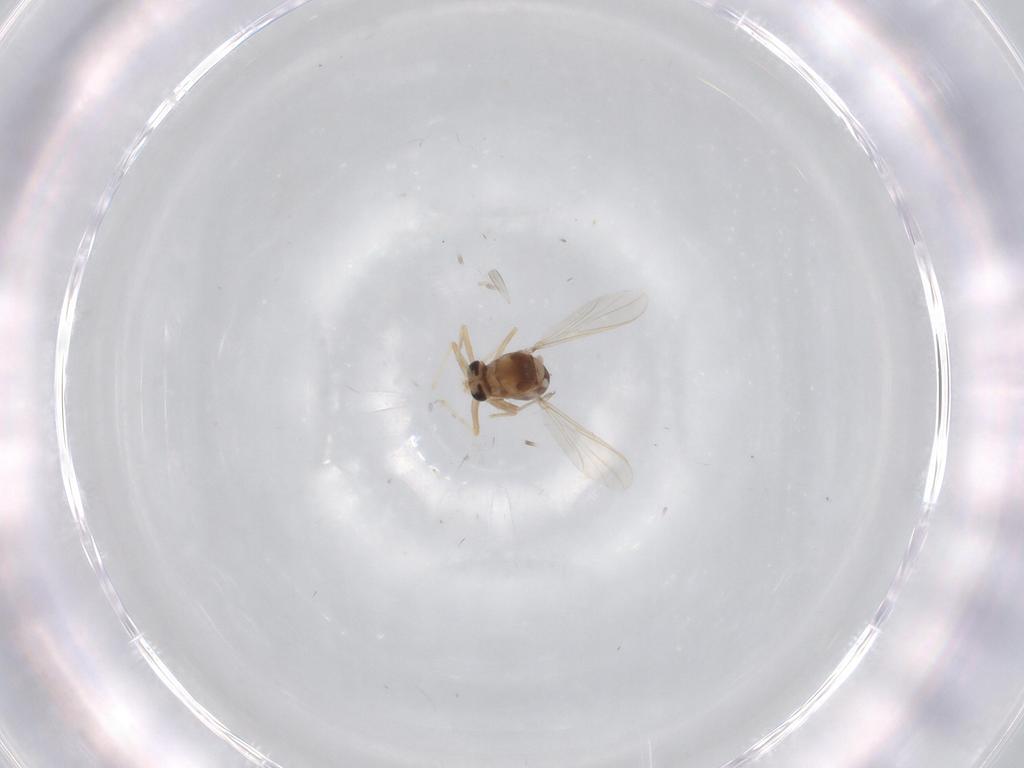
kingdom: Animalia
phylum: Arthropoda
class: Insecta
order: Diptera
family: Chironomidae
